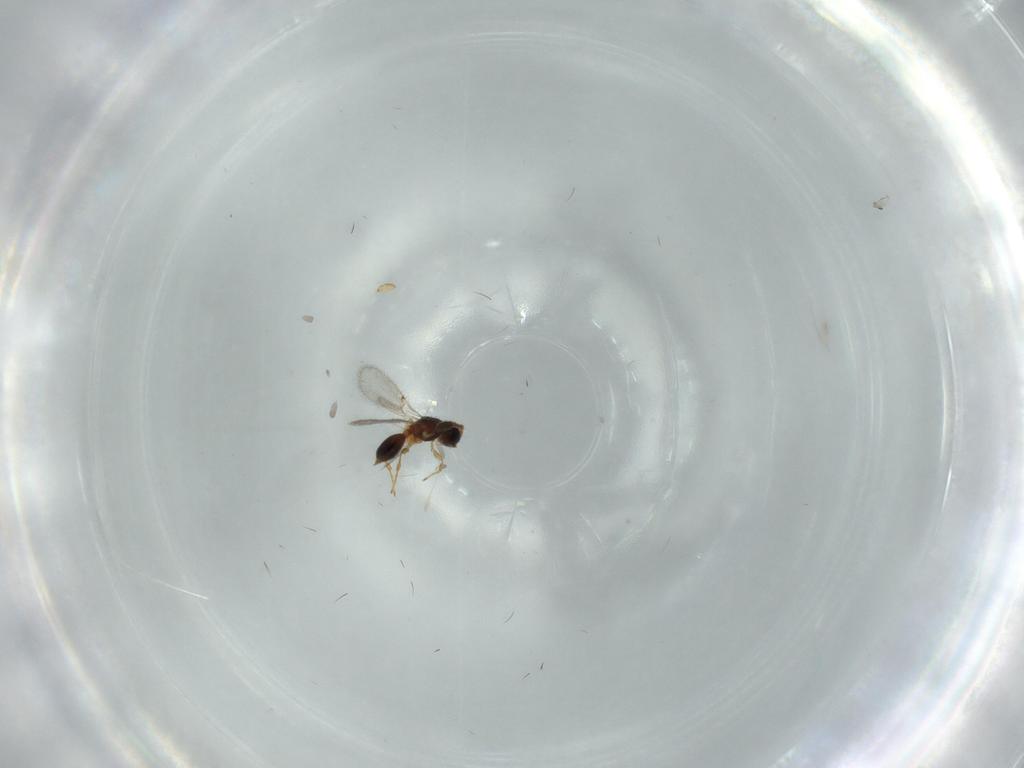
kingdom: Animalia
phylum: Arthropoda
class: Insecta
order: Hymenoptera
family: Diapriidae
